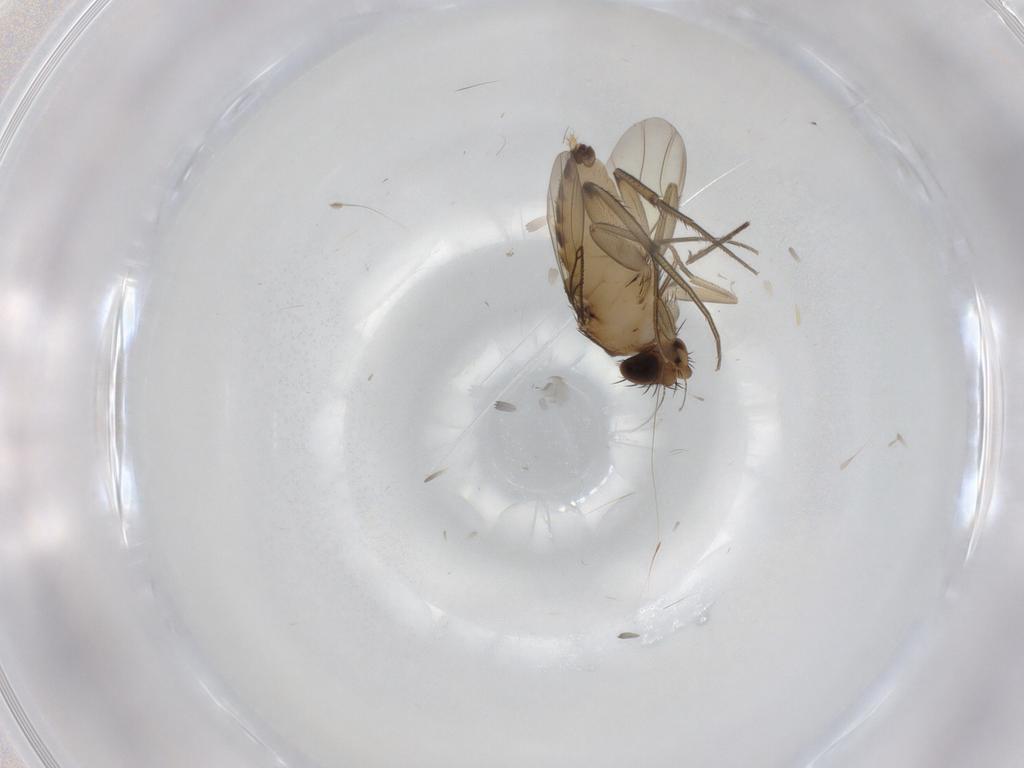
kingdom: Animalia
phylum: Arthropoda
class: Insecta
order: Diptera
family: Phoridae
